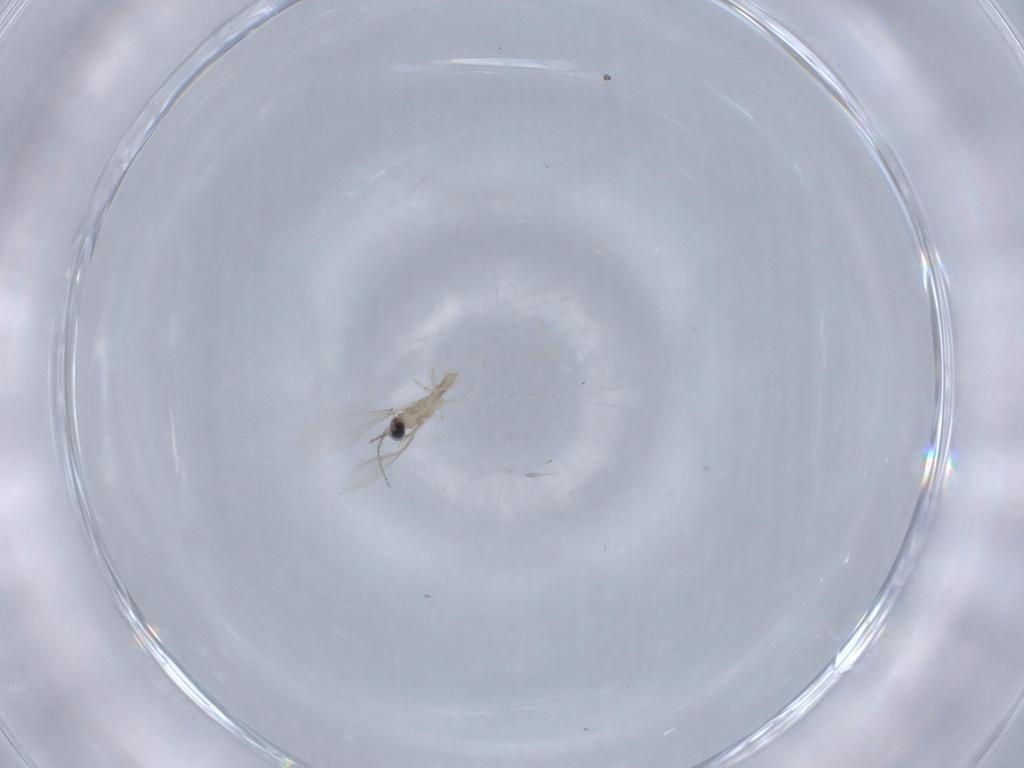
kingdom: Animalia
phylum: Arthropoda
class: Insecta
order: Diptera
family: Cecidomyiidae
